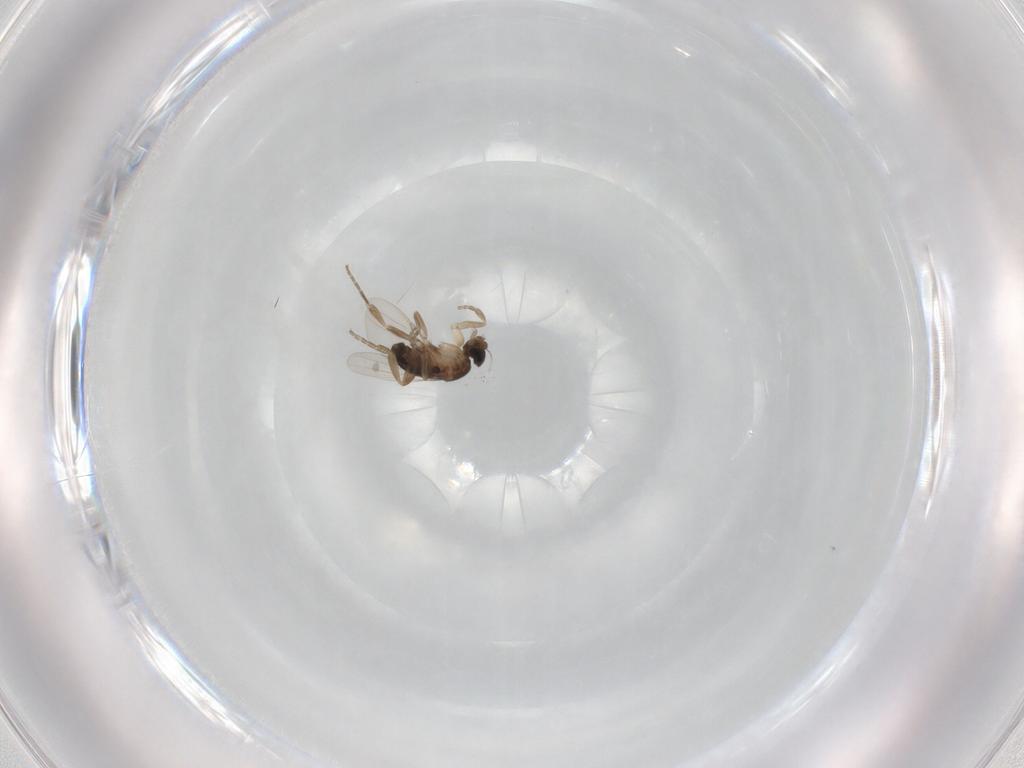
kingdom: Animalia
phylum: Arthropoda
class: Insecta
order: Diptera
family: Phoridae
